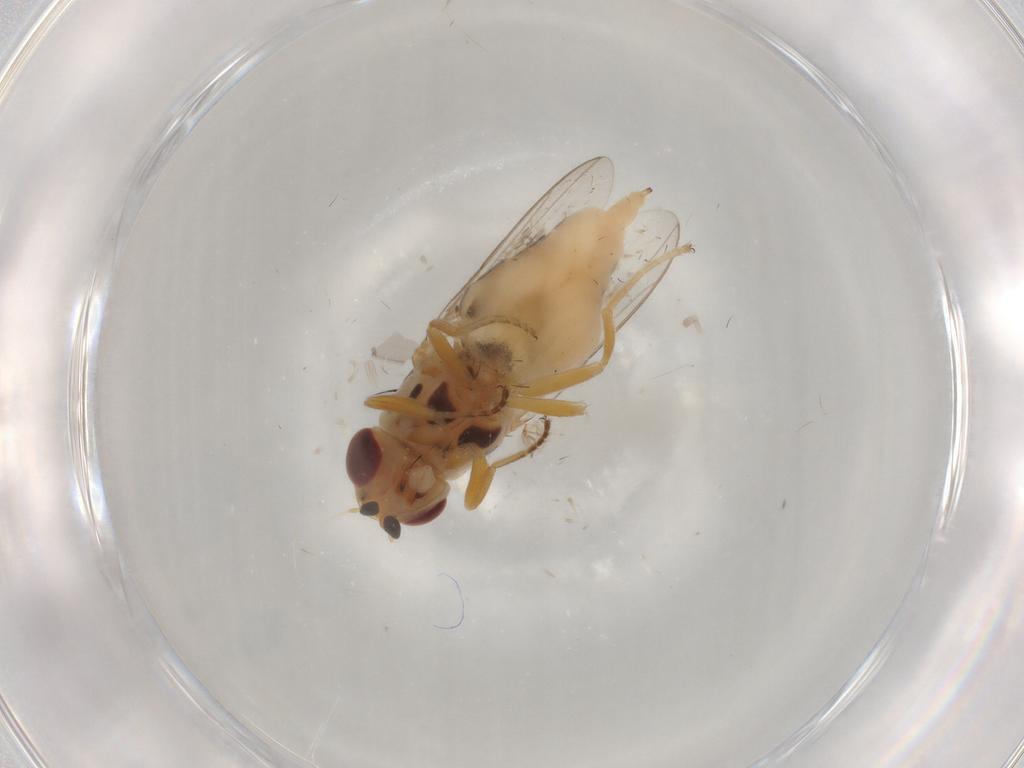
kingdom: Animalia
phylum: Arthropoda
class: Insecta
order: Diptera
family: Chloropidae
